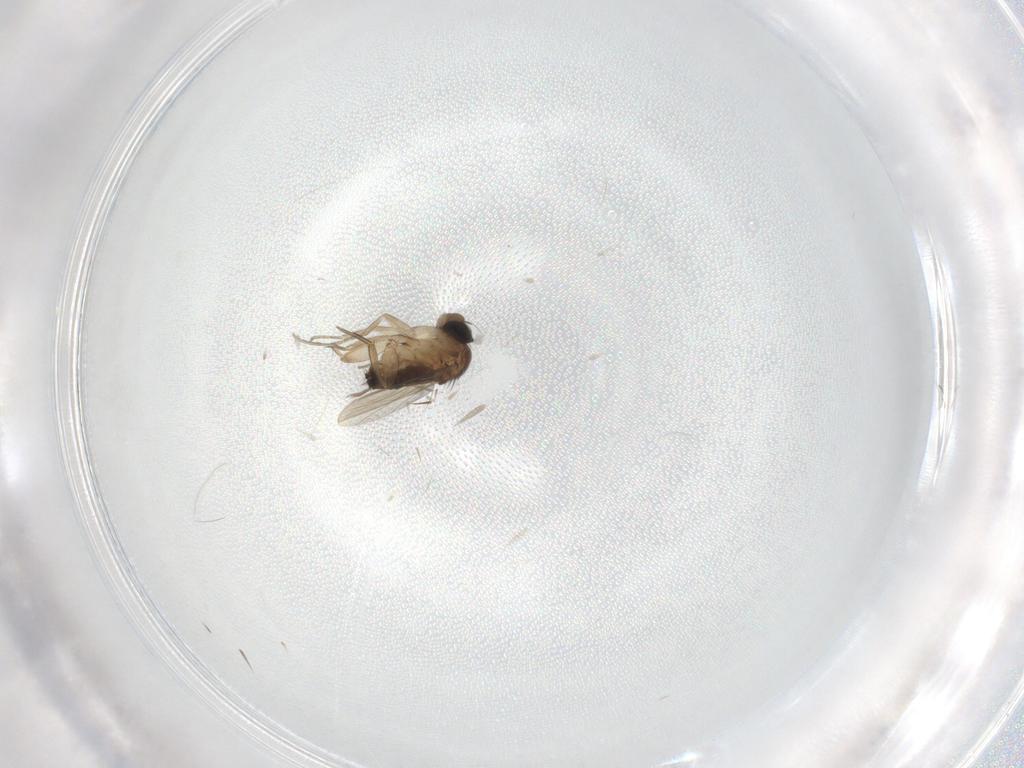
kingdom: Animalia
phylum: Arthropoda
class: Insecta
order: Diptera
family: Phoridae
